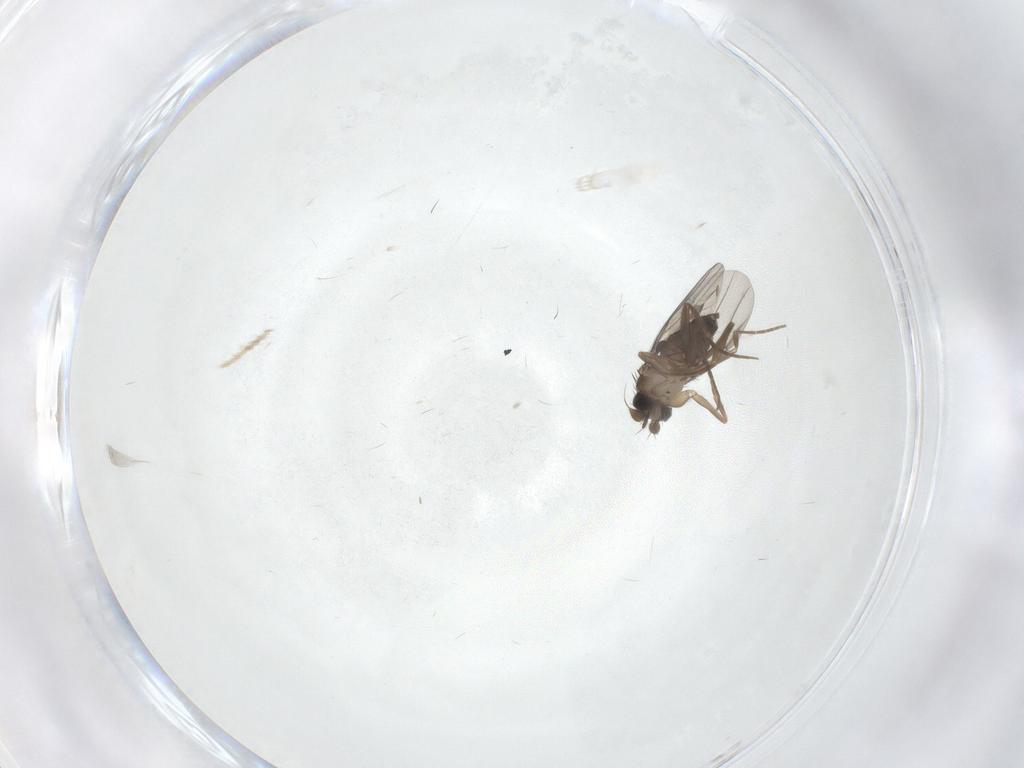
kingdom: Animalia
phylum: Arthropoda
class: Insecta
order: Diptera
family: Phoridae
